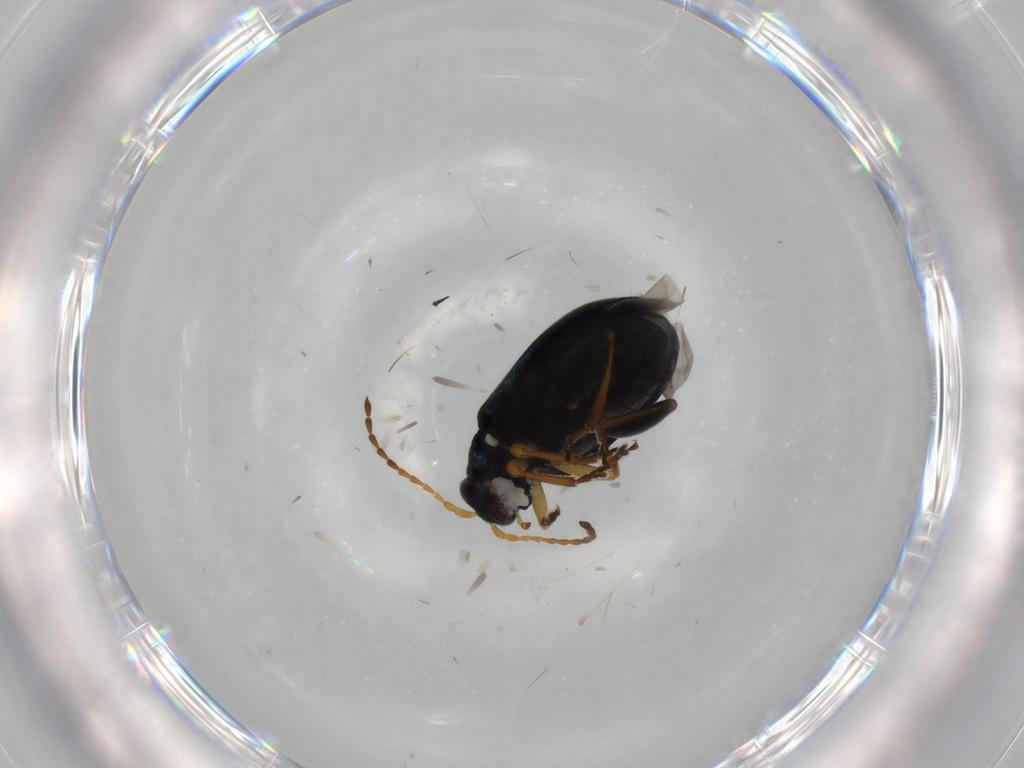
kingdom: Animalia
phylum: Arthropoda
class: Insecta
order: Coleoptera
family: Chrysomelidae
